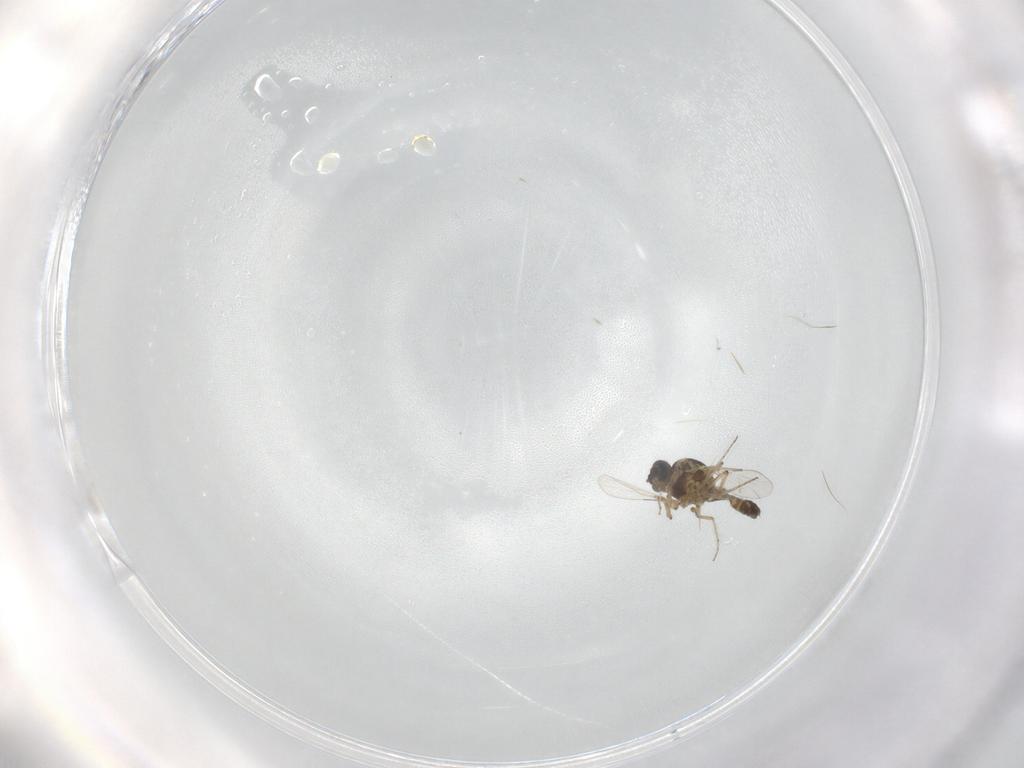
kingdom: Animalia
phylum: Arthropoda
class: Insecta
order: Diptera
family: Ceratopogonidae
